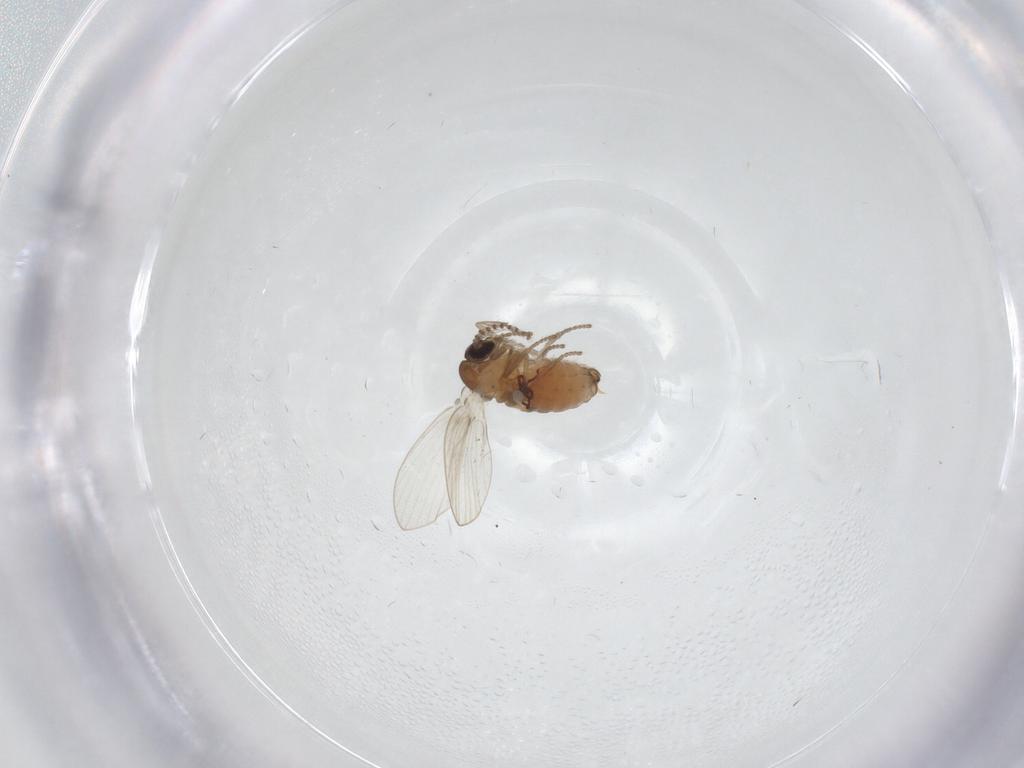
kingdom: Animalia
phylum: Arthropoda
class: Insecta
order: Diptera
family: Psychodidae
